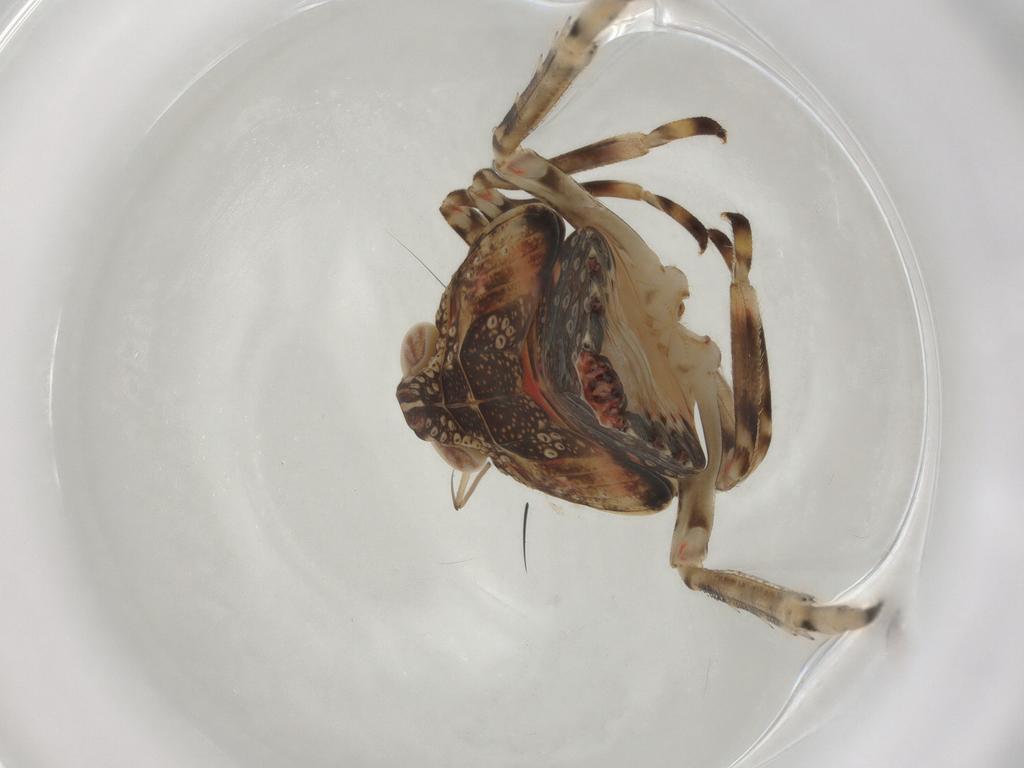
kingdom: Animalia
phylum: Arthropoda
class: Insecta
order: Hemiptera
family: Tropiduchidae
